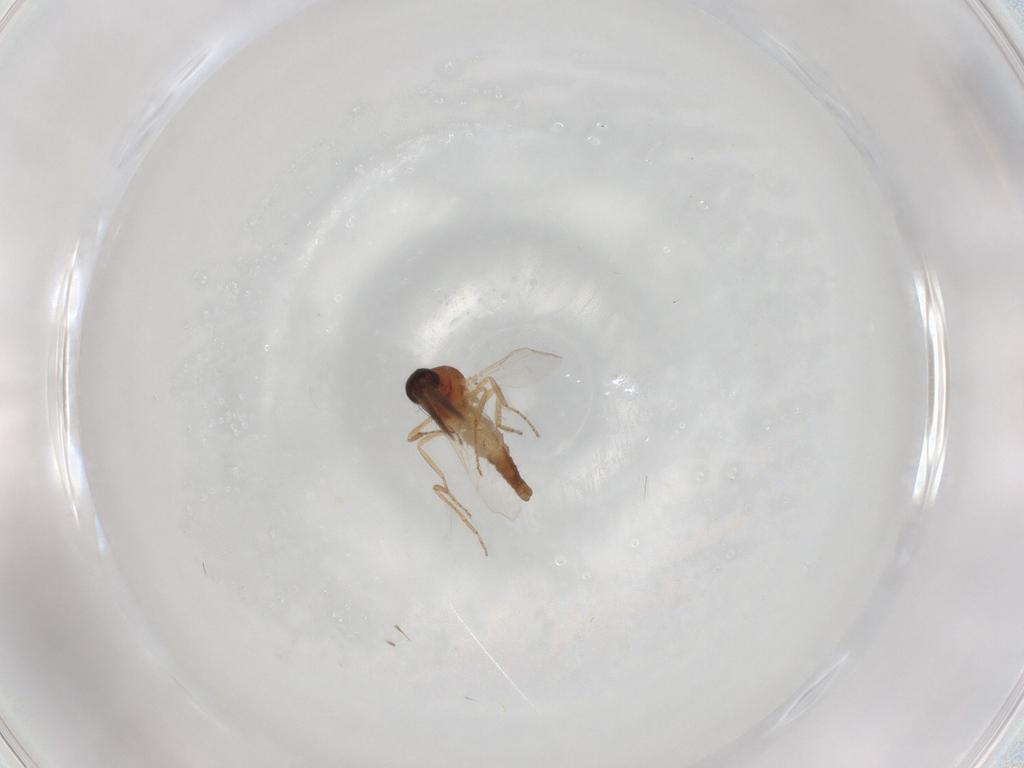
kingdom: Animalia
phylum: Arthropoda
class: Insecta
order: Diptera
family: Ceratopogonidae
